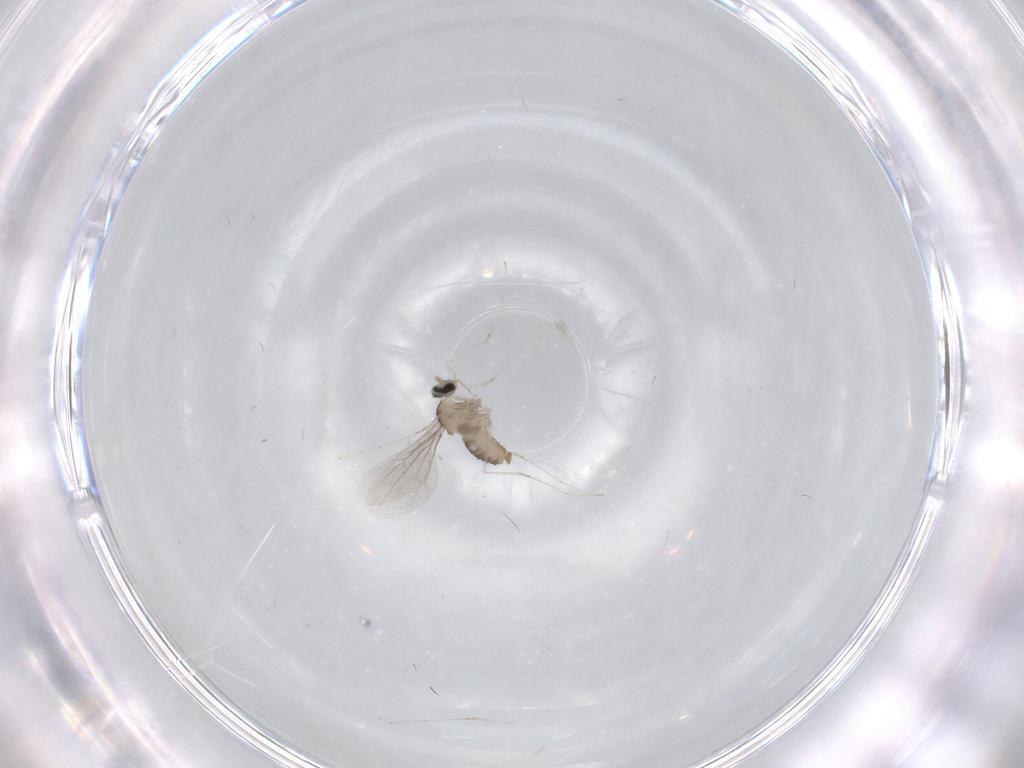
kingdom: Animalia
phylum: Arthropoda
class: Insecta
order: Diptera
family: Cecidomyiidae
